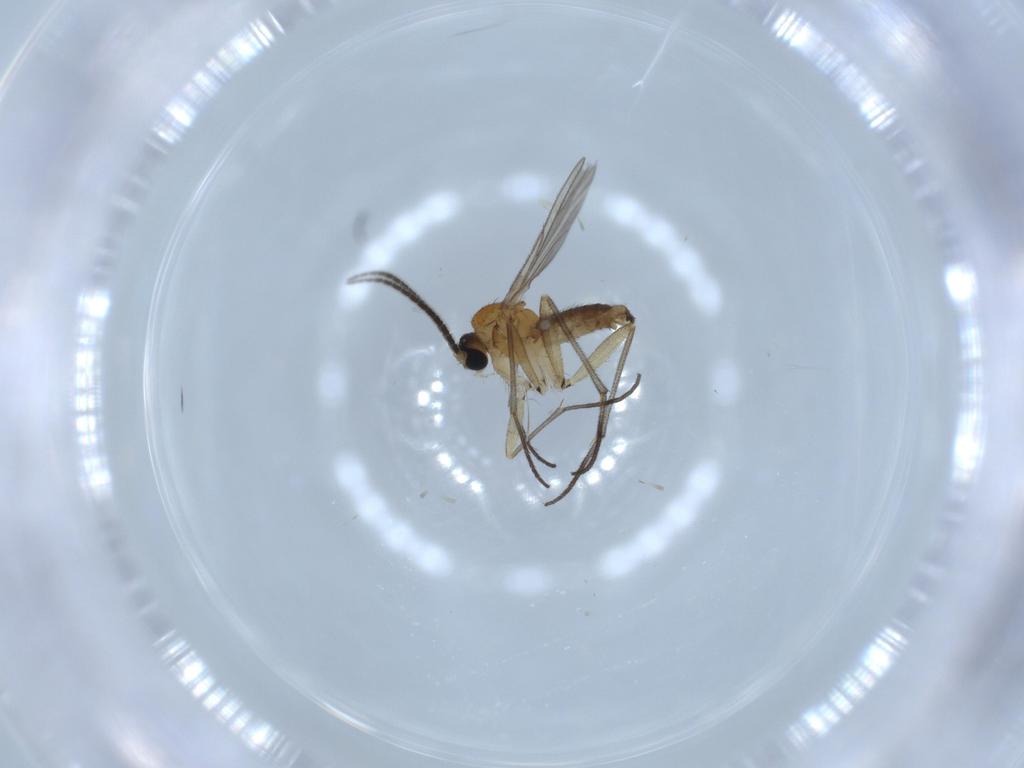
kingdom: Animalia
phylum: Arthropoda
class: Insecta
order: Diptera
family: Sciaridae
